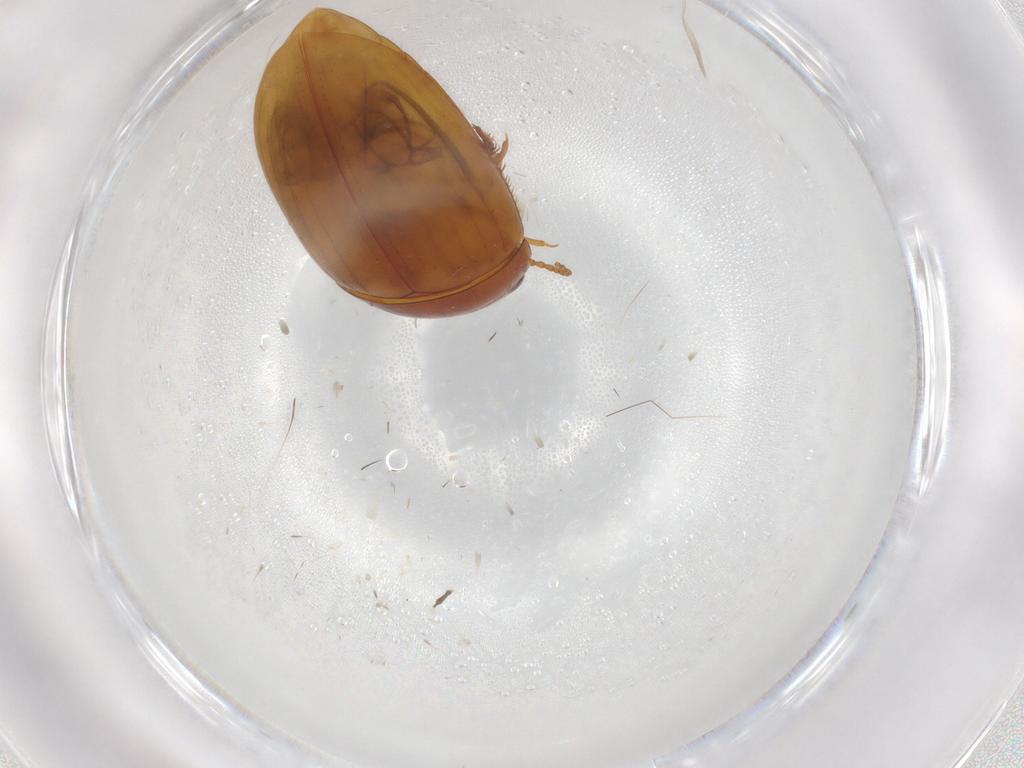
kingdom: Animalia
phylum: Arthropoda
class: Insecta
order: Coleoptera
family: Dytiscidae
